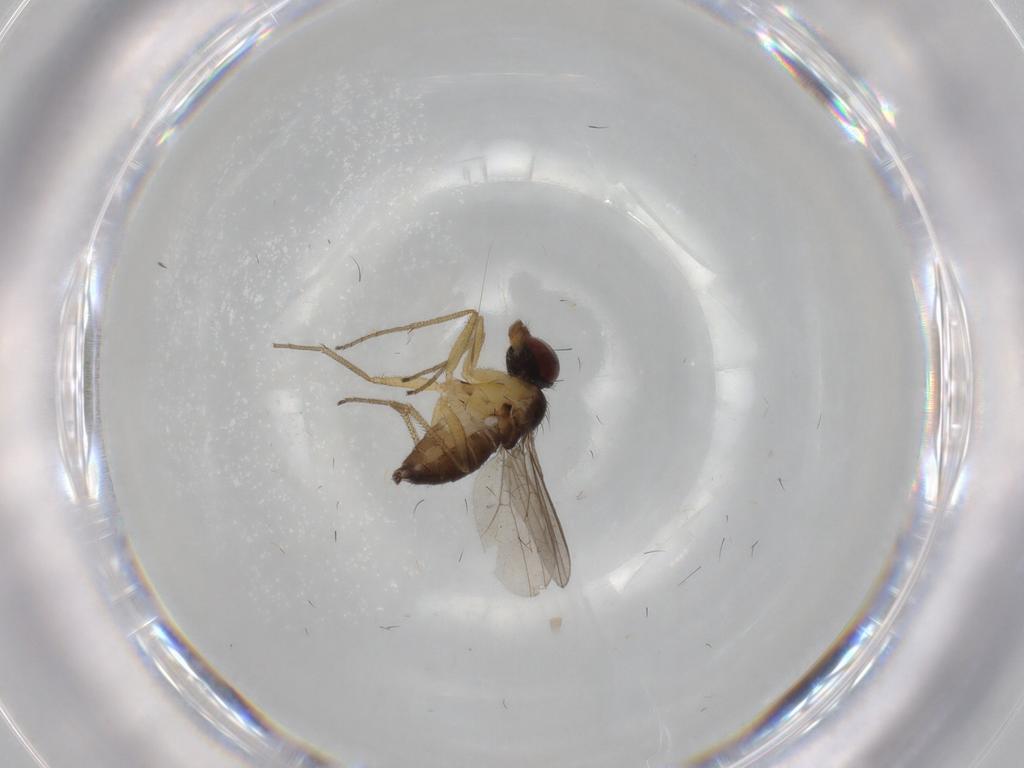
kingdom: Animalia
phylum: Arthropoda
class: Insecta
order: Diptera
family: Dolichopodidae
